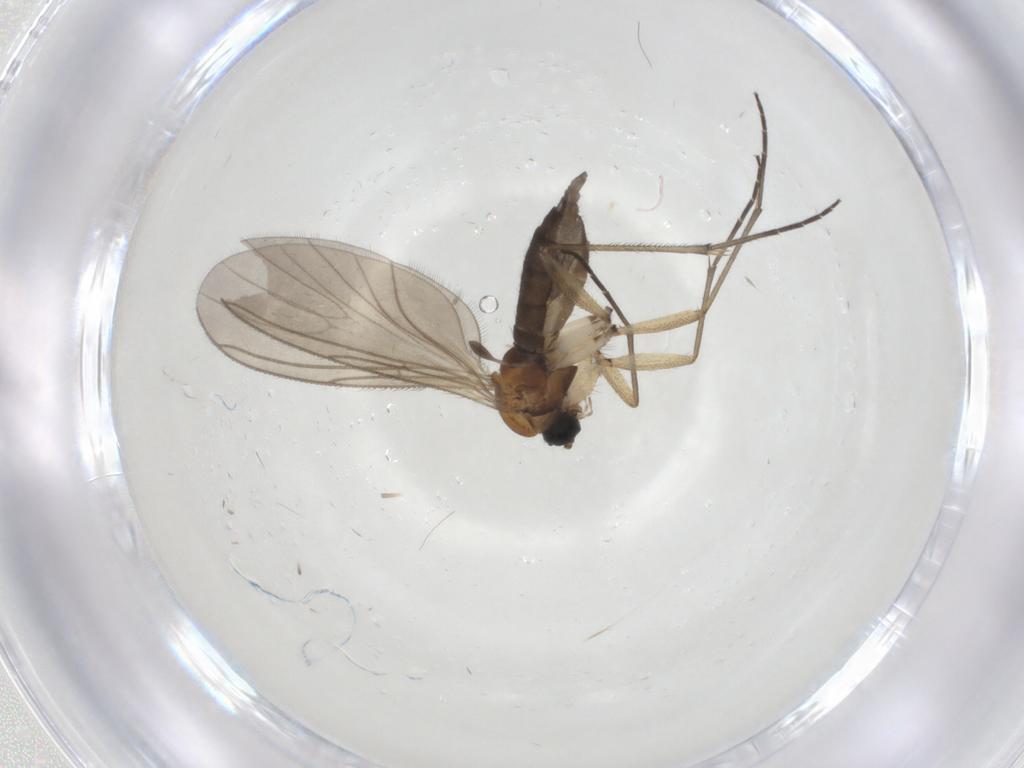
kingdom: Animalia
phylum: Arthropoda
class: Insecta
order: Diptera
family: Sciaridae
